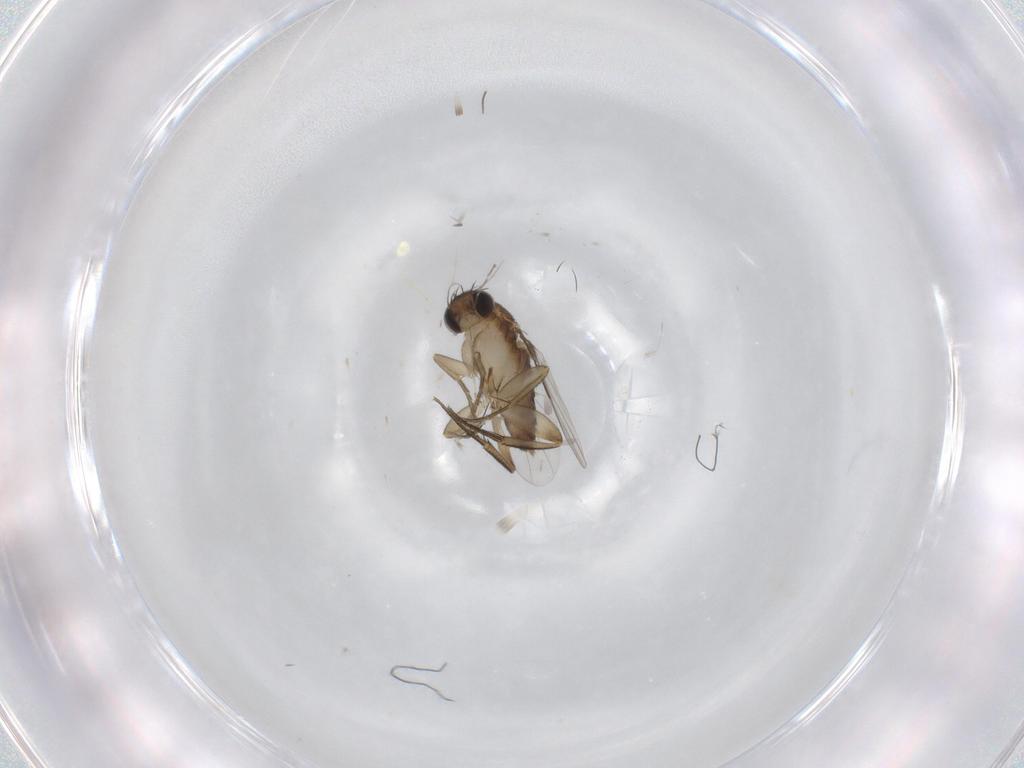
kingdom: Animalia
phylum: Arthropoda
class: Insecta
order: Diptera
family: Cecidomyiidae
